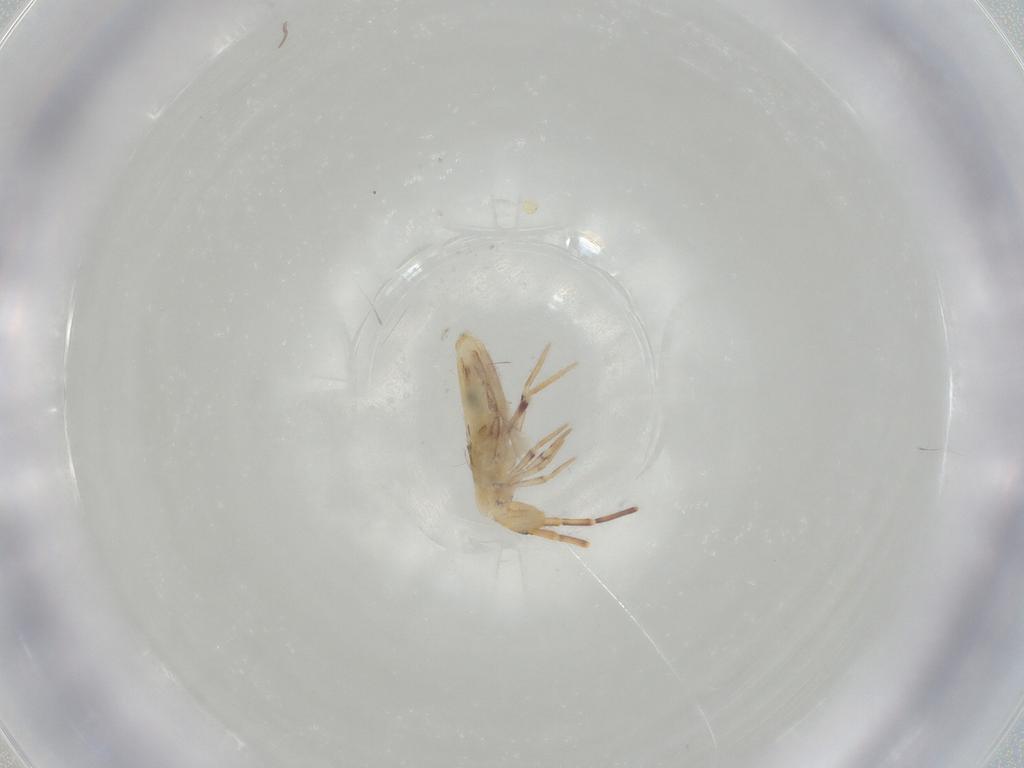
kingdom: Animalia
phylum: Arthropoda
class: Collembola
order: Poduromorpha
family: Hypogastruridae
